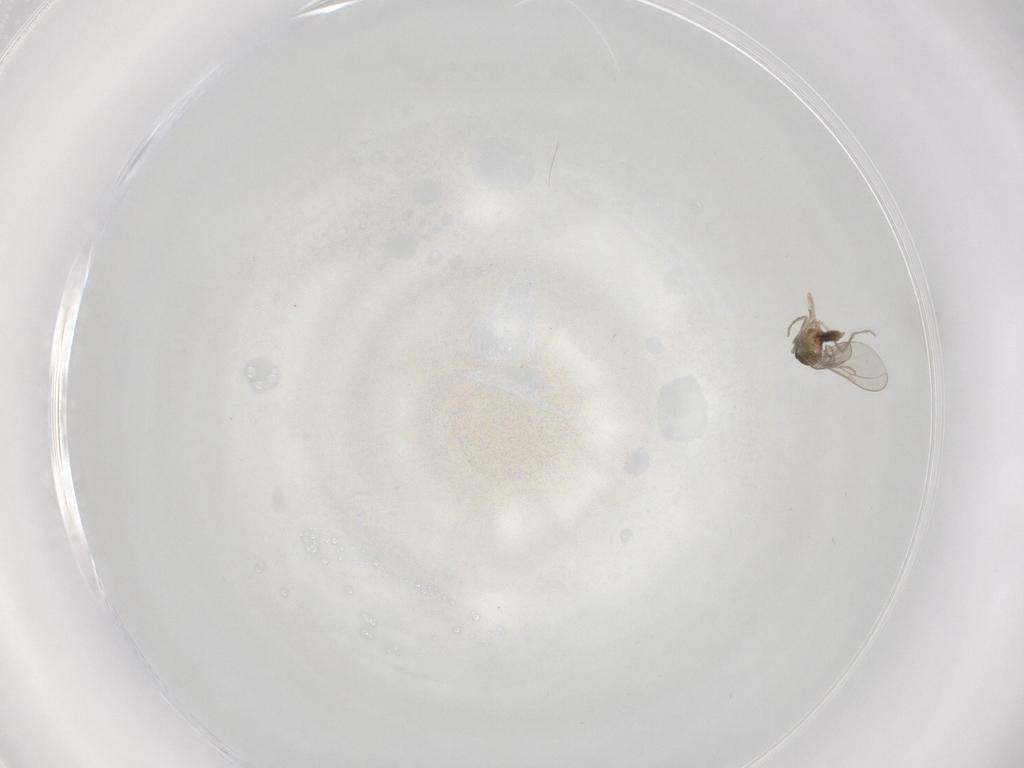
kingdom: Animalia
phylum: Arthropoda
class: Insecta
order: Diptera
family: Cecidomyiidae
